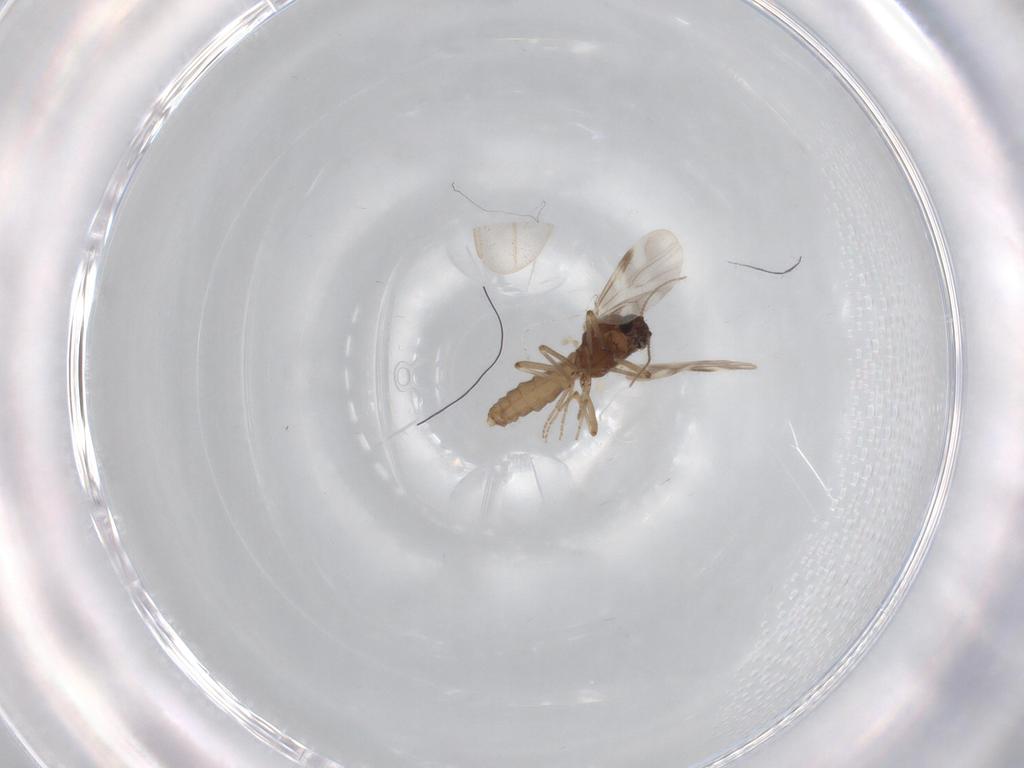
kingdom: Animalia
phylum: Arthropoda
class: Insecta
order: Diptera
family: Ceratopogonidae
